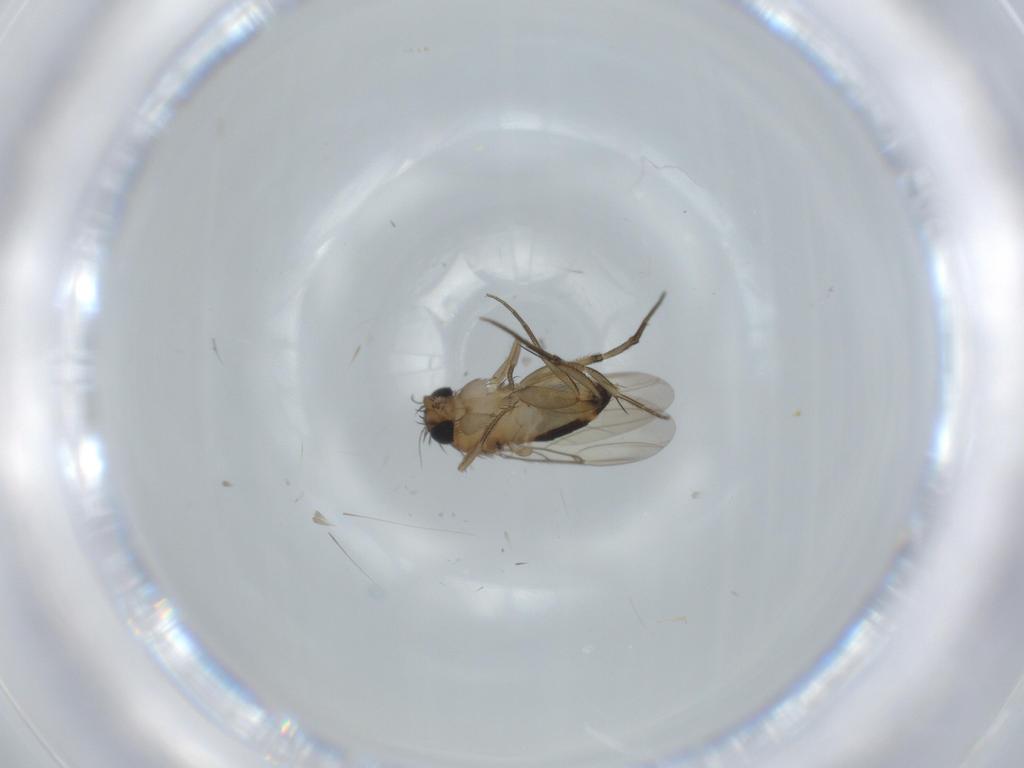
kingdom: Animalia
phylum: Arthropoda
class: Insecta
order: Diptera
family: Phoridae
